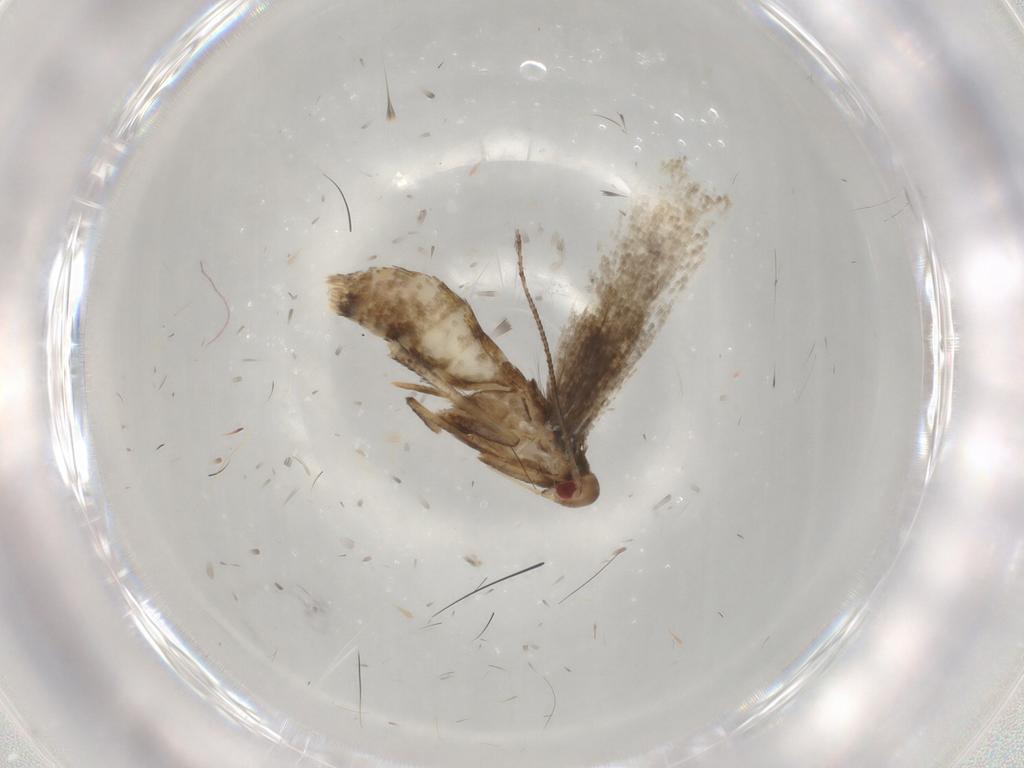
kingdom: Animalia
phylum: Arthropoda
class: Insecta
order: Lepidoptera
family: Momphidae
